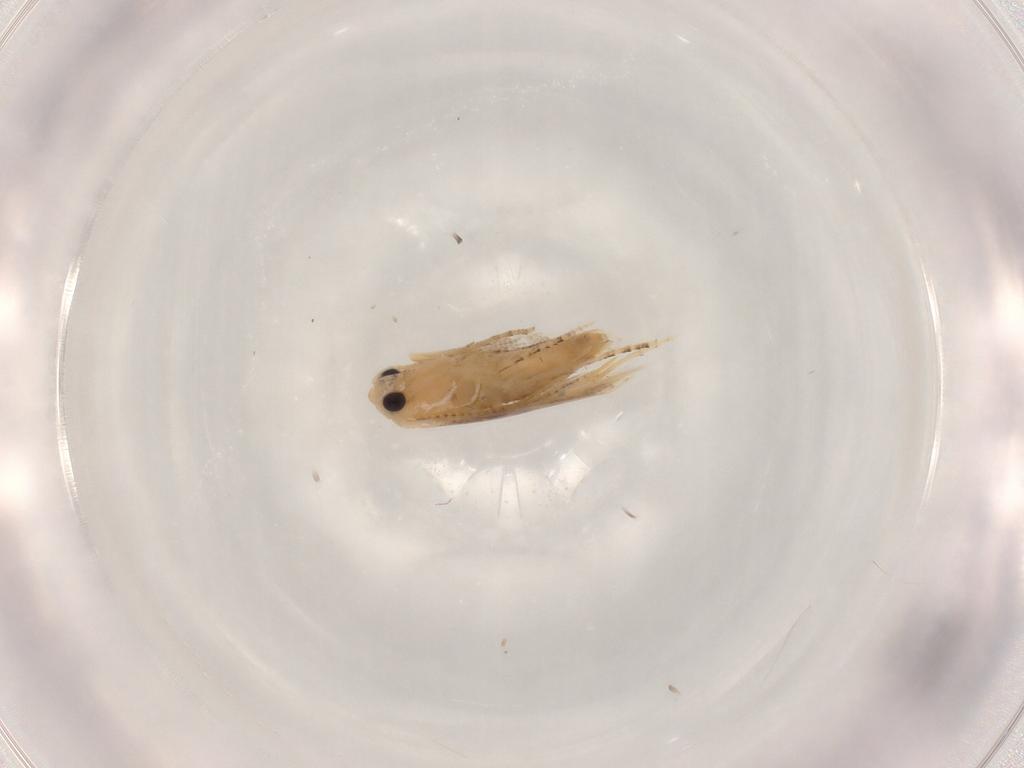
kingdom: Animalia
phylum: Arthropoda
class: Insecta
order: Lepidoptera
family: Bucculatricidae
